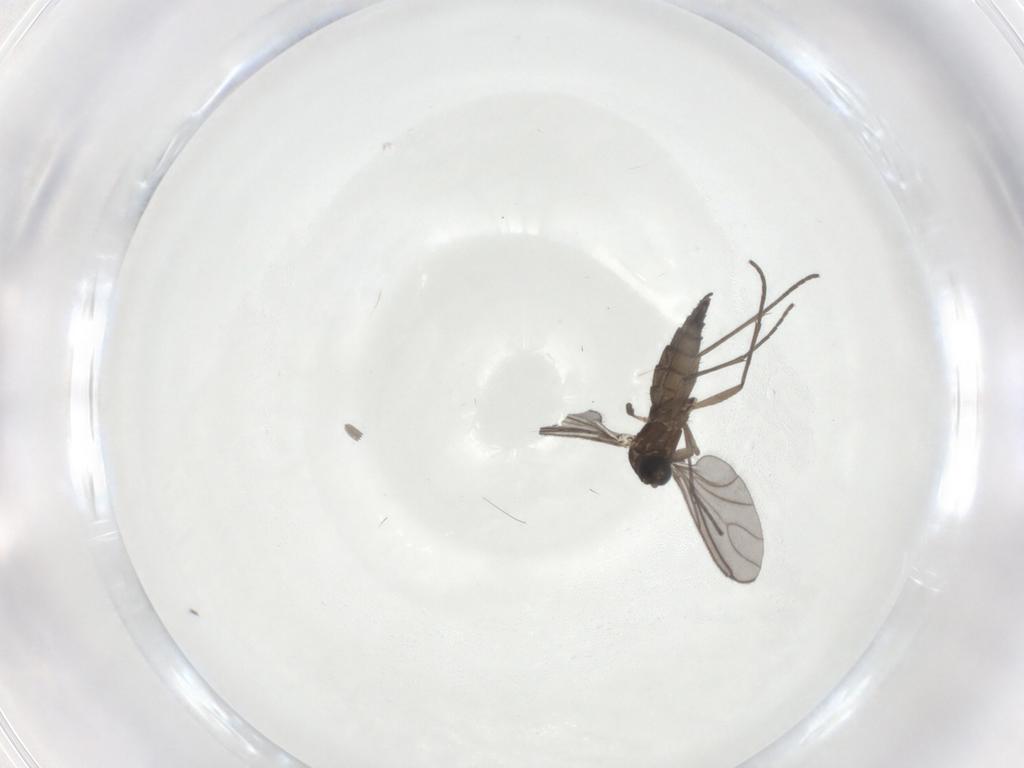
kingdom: Animalia
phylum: Arthropoda
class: Insecta
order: Diptera
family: Sciaridae
